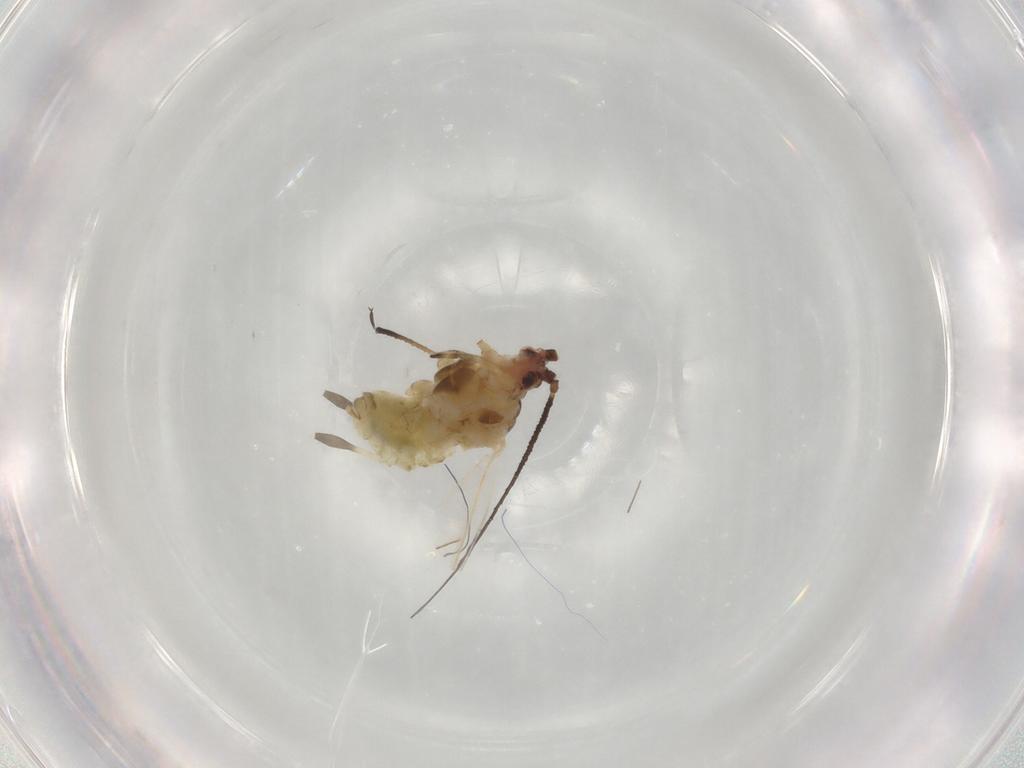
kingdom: Animalia
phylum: Arthropoda
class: Insecta
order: Hemiptera
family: Aphididae
